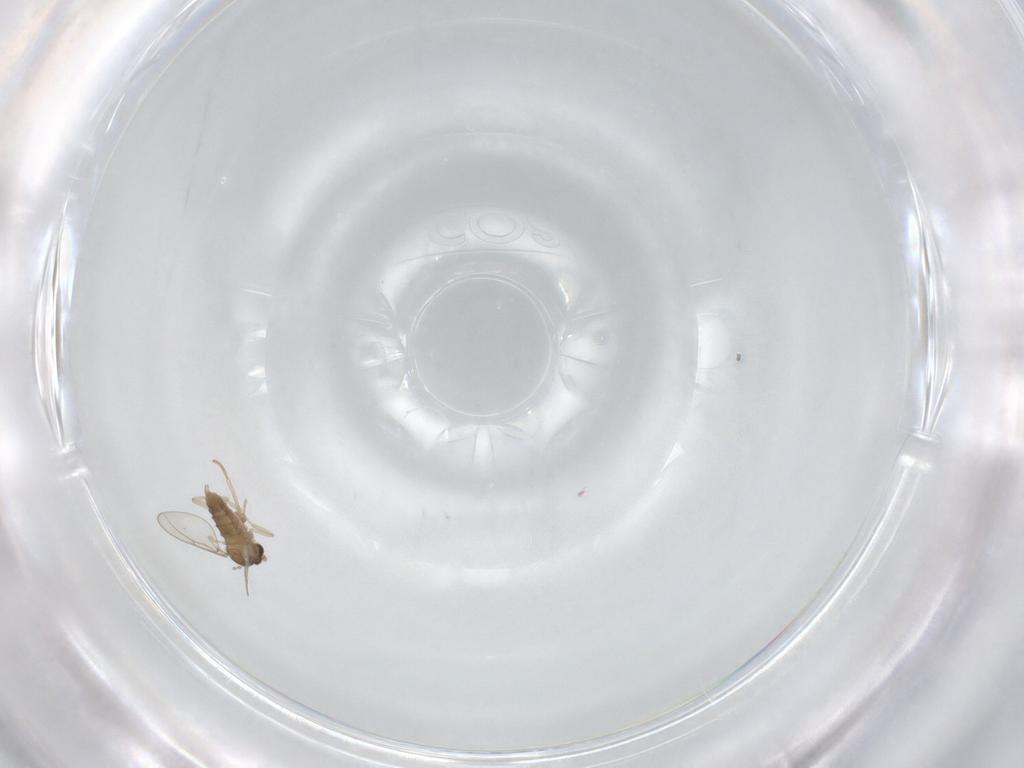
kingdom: Animalia
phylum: Arthropoda
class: Insecta
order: Diptera
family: Cecidomyiidae
